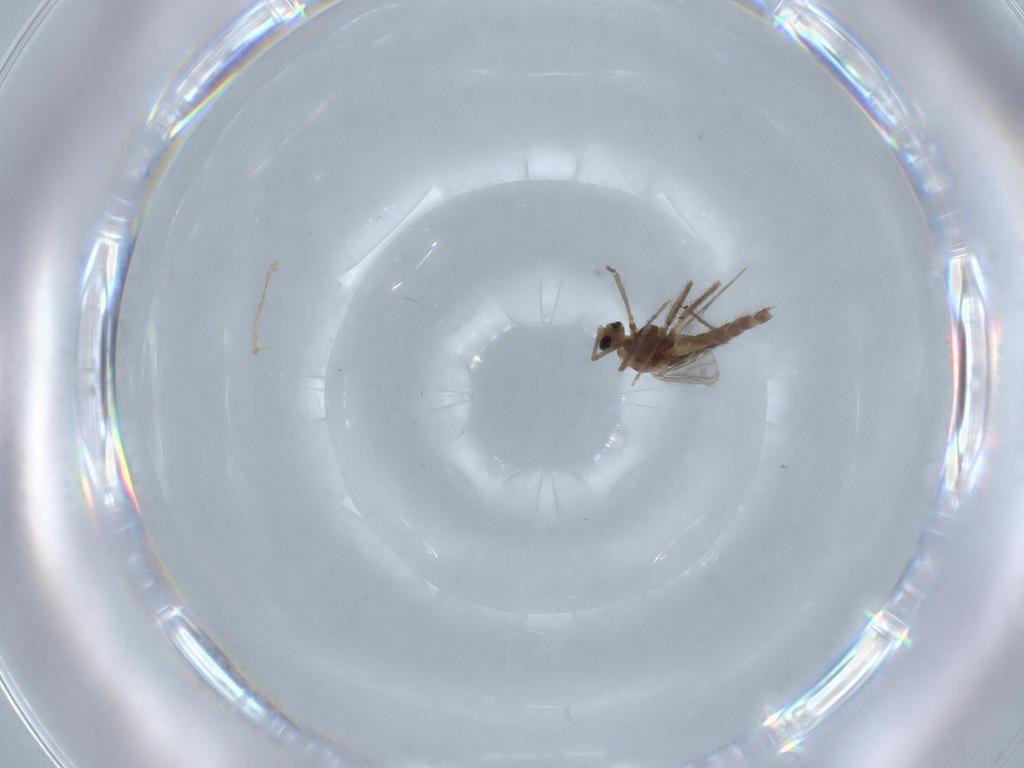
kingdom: Animalia
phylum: Arthropoda
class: Insecta
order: Diptera
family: Chironomidae
